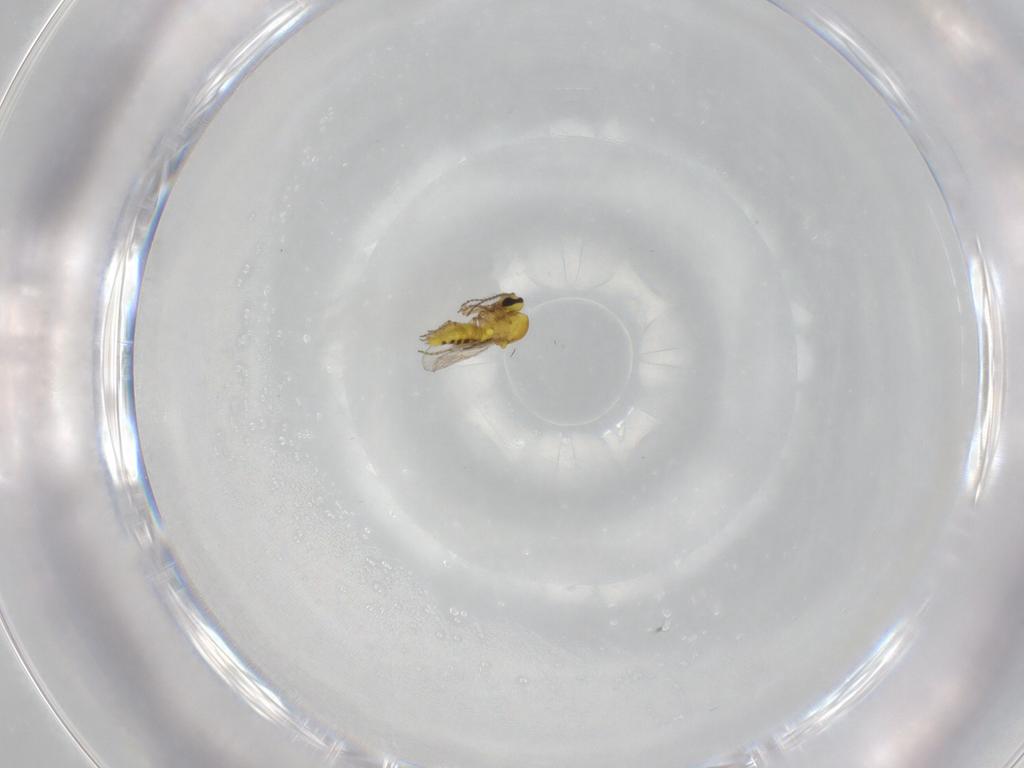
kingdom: Animalia
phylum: Arthropoda
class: Insecta
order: Diptera
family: Ceratopogonidae
